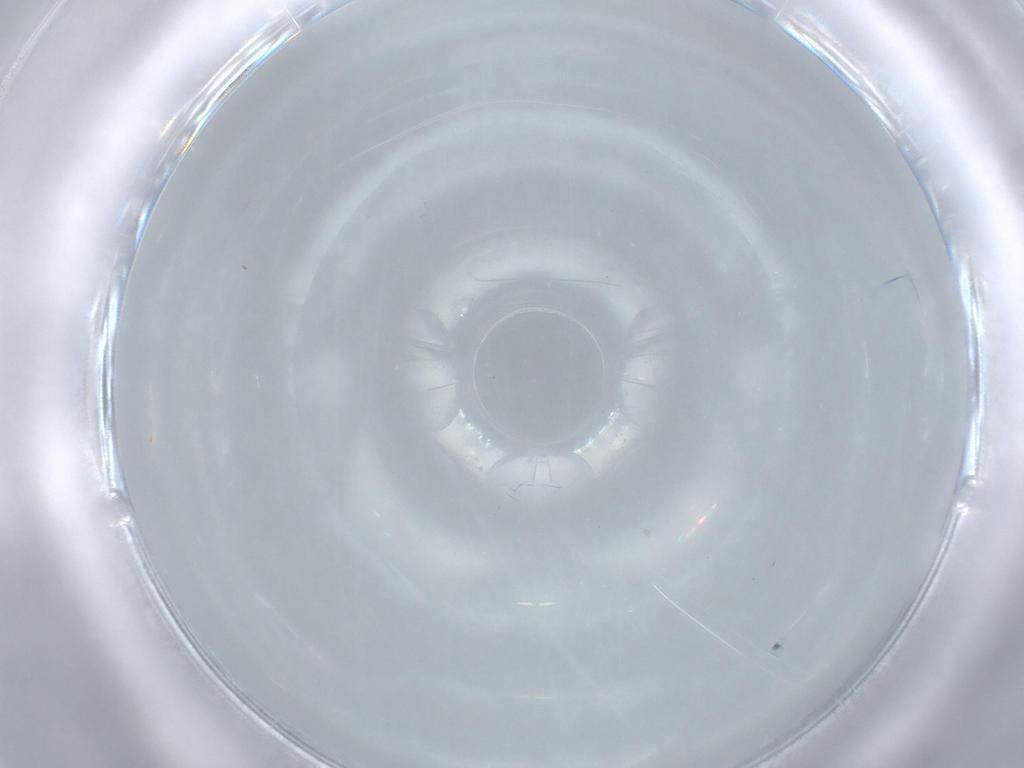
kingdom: Animalia
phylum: Arthropoda
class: Insecta
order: Diptera
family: Cecidomyiidae
